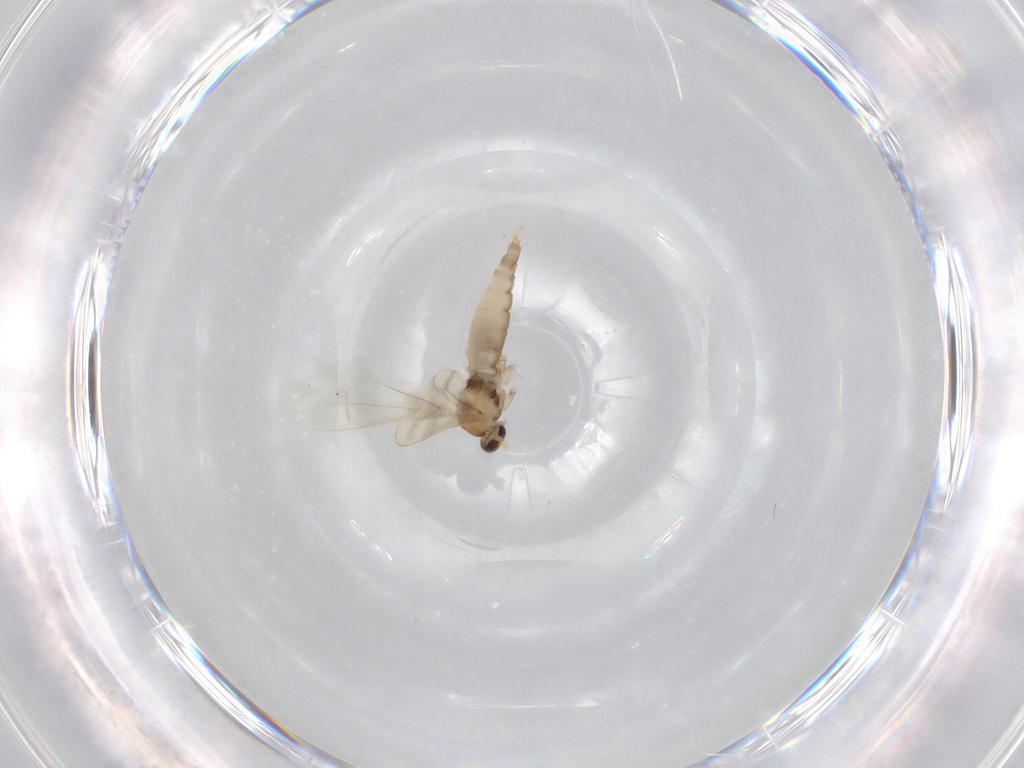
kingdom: Animalia
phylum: Arthropoda
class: Insecta
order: Diptera
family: Cecidomyiidae
